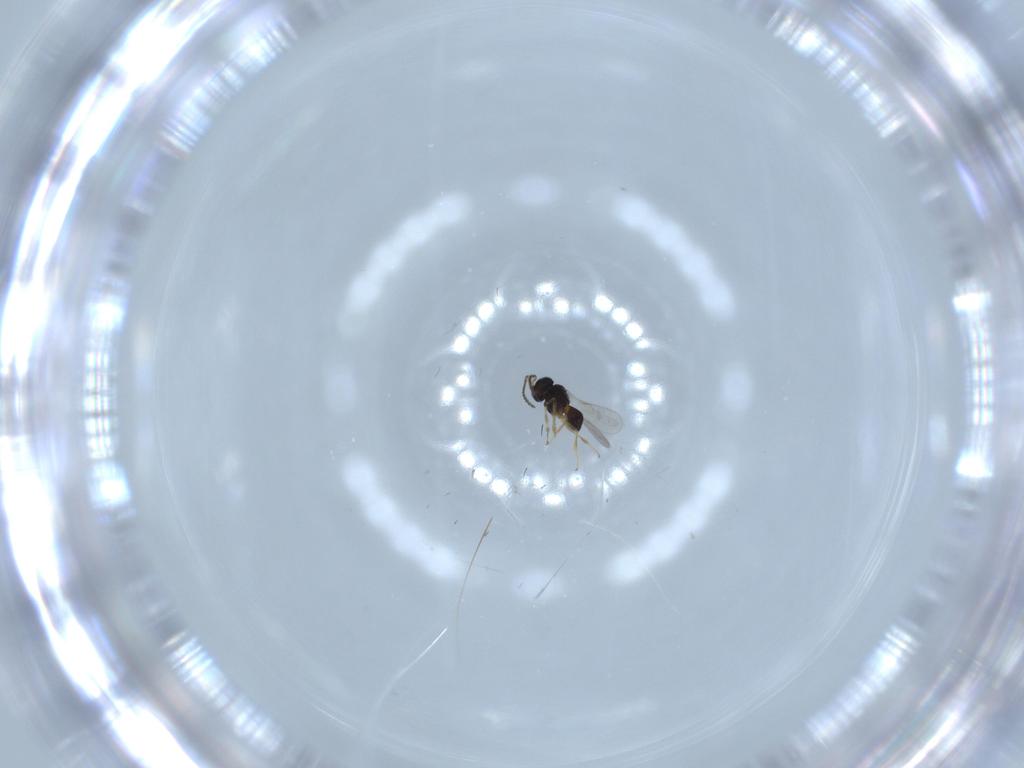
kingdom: Animalia
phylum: Arthropoda
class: Insecta
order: Hymenoptera
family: Scelionidae
